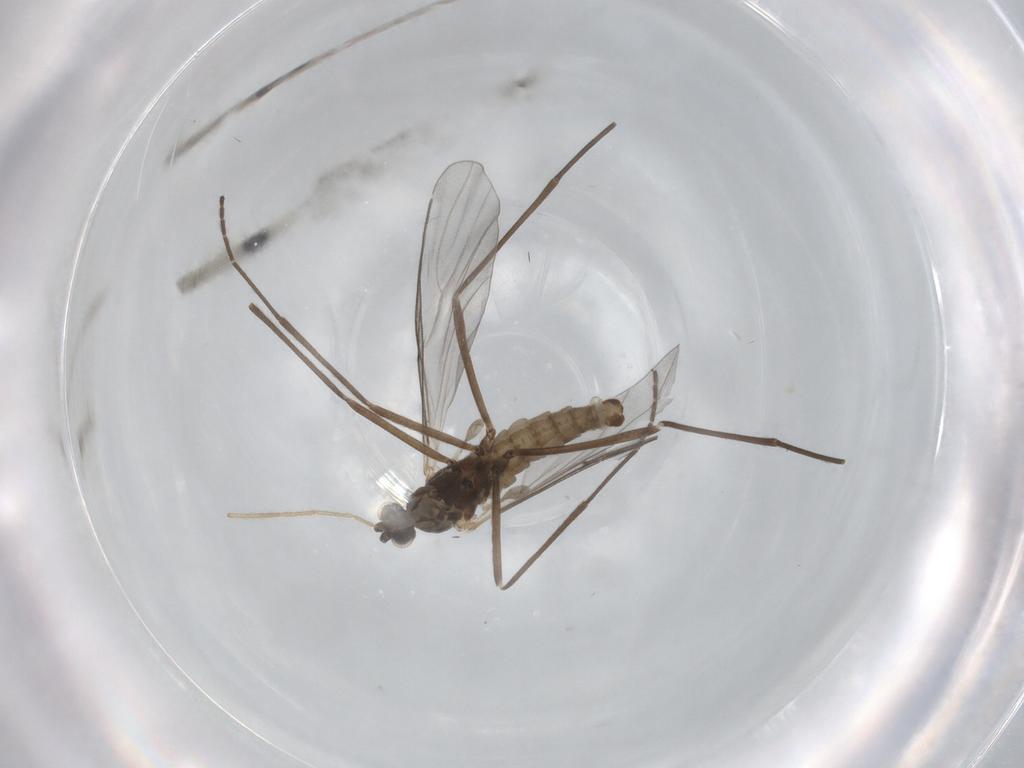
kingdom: Animalia
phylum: Arthropoda
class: Insecta
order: Diptera
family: Cecidomyiidae
